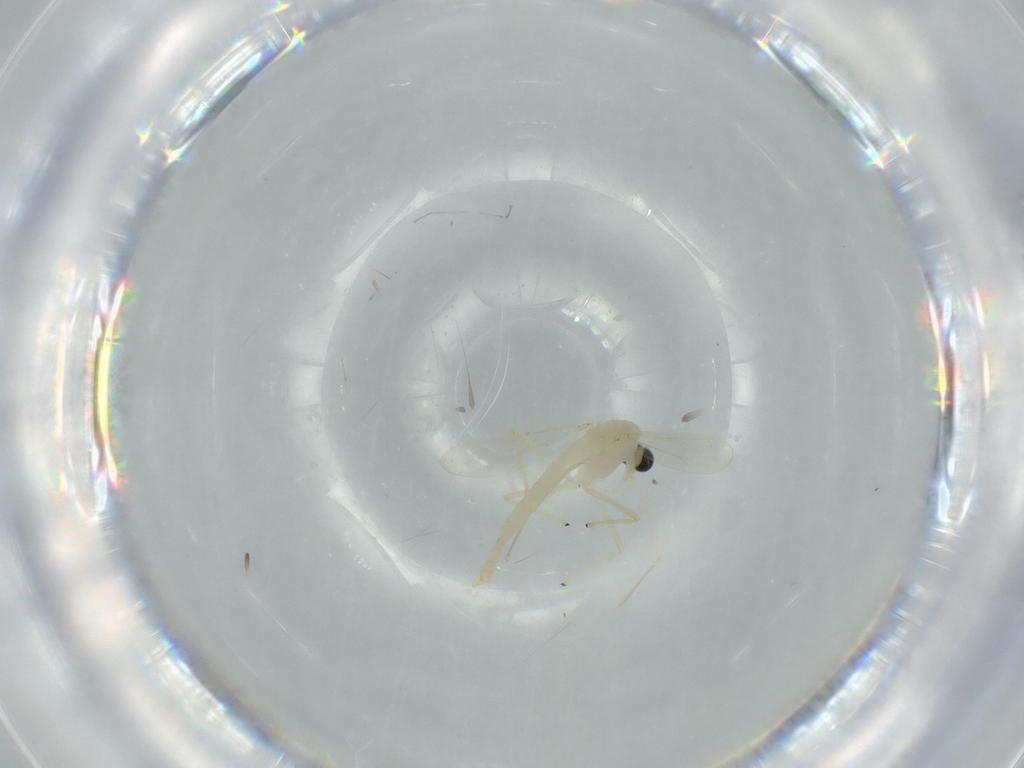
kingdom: Animalia
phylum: Arthropoda
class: Insecta
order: Diptera
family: Chironomidae
